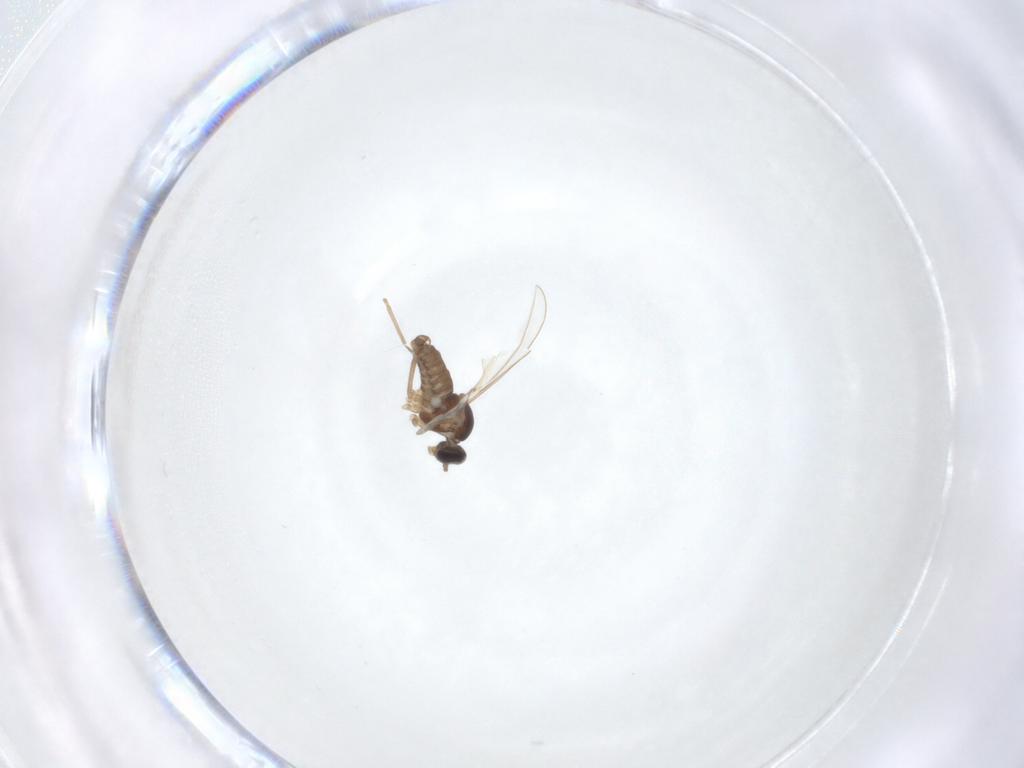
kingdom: Animalia
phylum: Arthropoda
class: Insecta
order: Diptera
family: Cecidomyiidae
